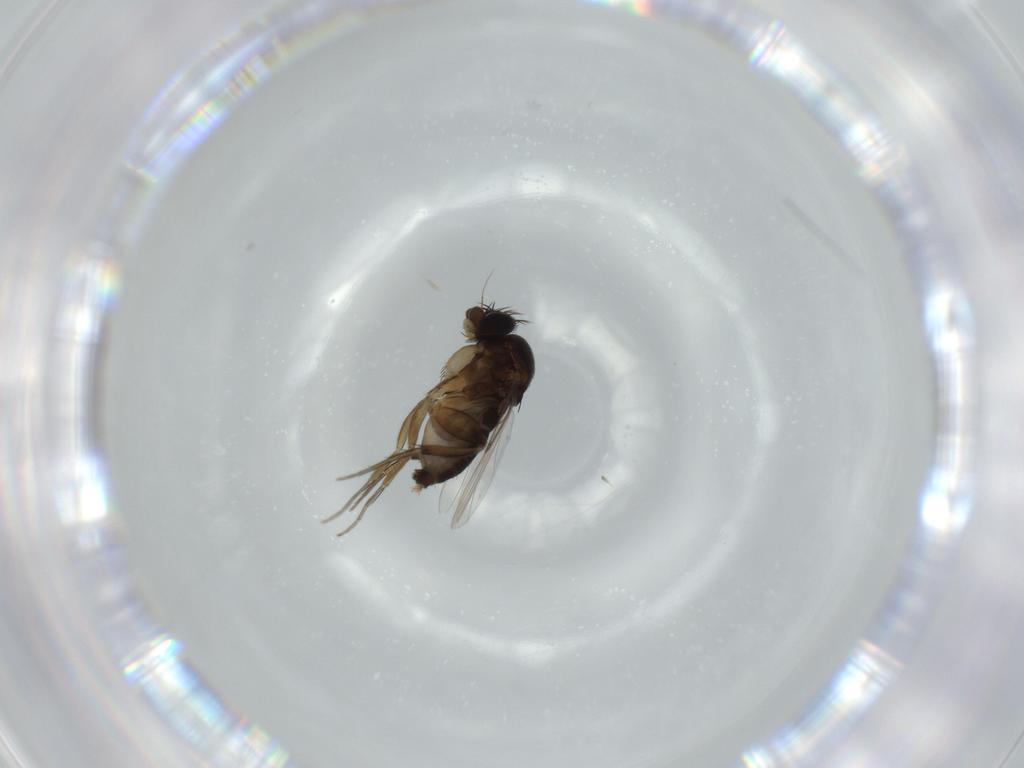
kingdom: Animalia
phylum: Arthropoda
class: Insecta
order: Diptera
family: Phoridae
